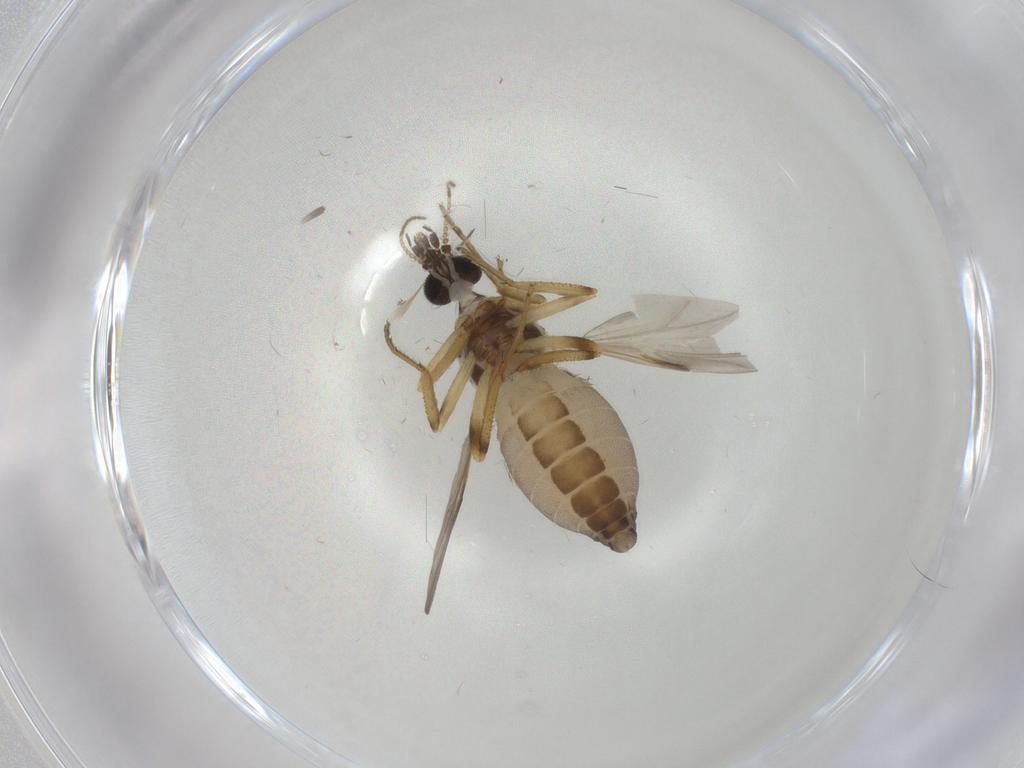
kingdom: Animalia
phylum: Arthropoda
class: Insecta
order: Diptera
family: Ceratopogonidae
